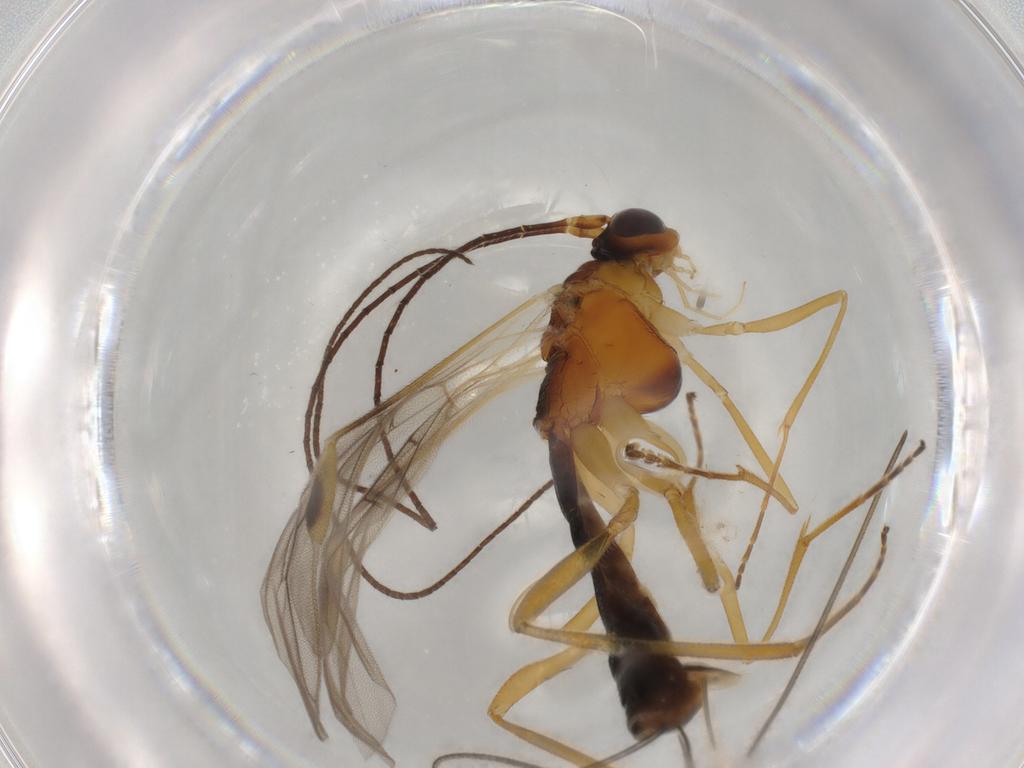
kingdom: Animalia
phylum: Arthropoda
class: Insecta
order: Hymenoptera
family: Braconidae
